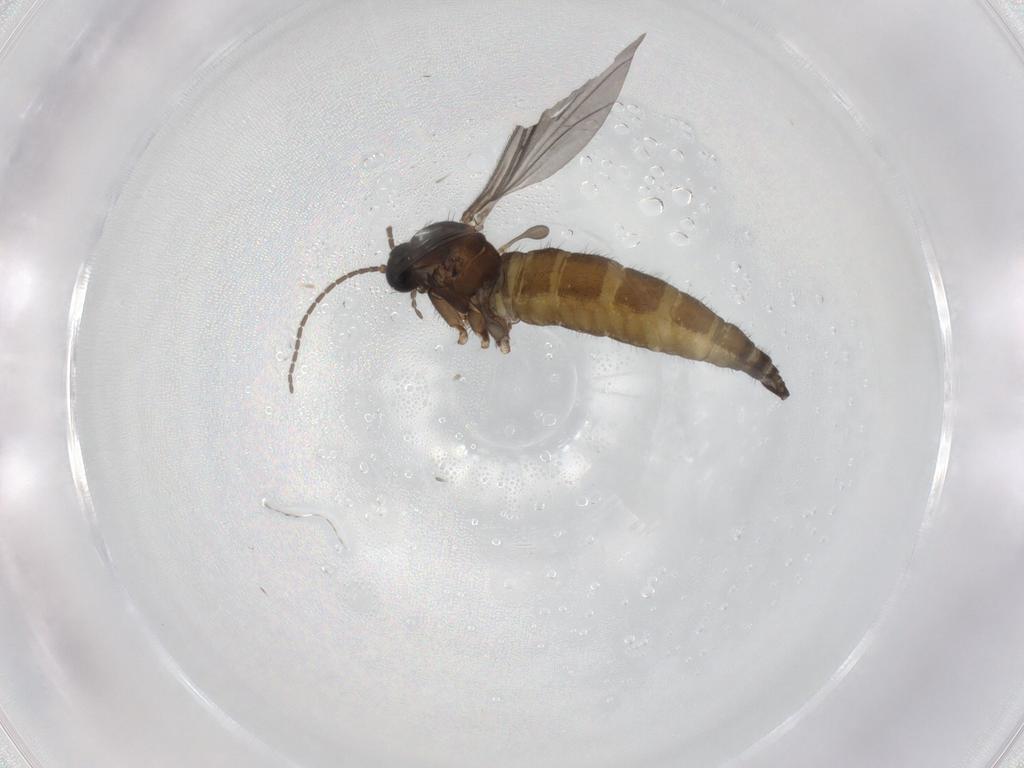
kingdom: Animalia
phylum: Arthropoda
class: Insecta
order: Diptera
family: Sciaridae
